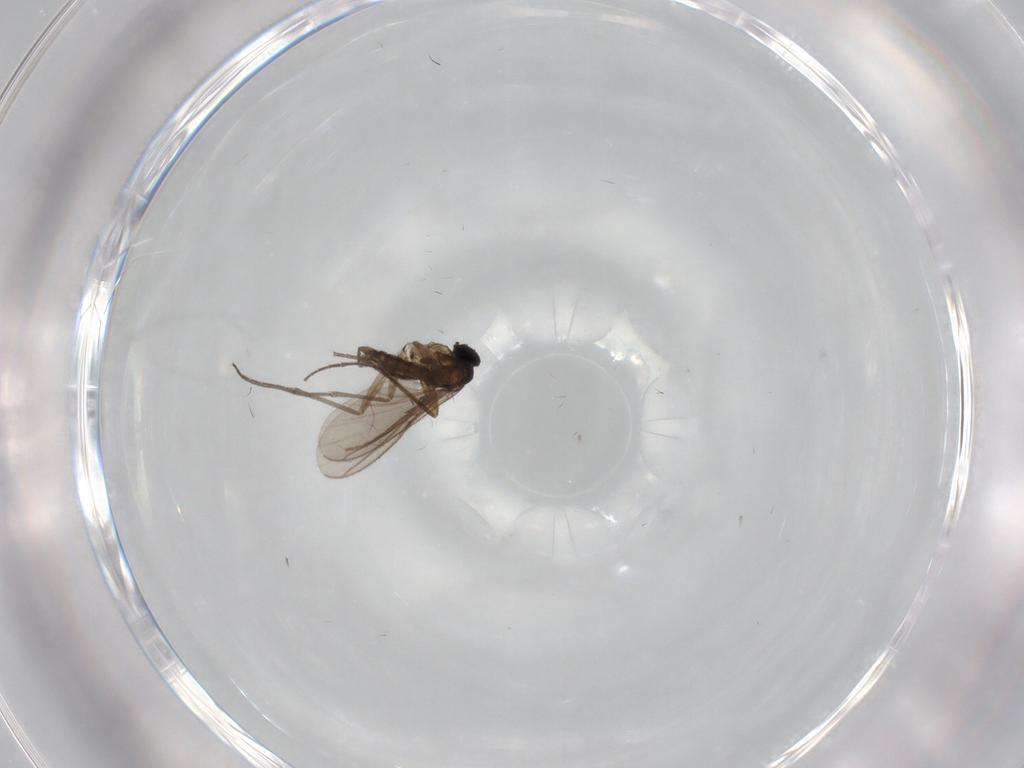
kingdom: Animalia
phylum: Arthropoda
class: Insecta
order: Diptera
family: Sciaridae
